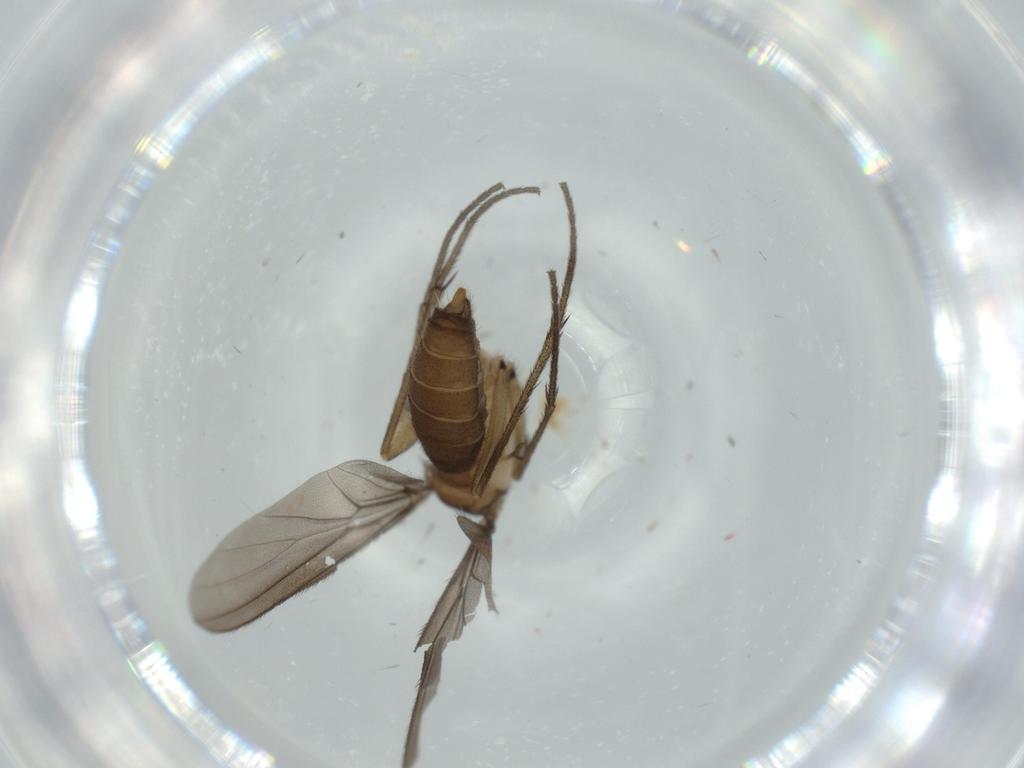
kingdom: Animalia
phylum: Arthropoda
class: Insecta
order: Diptera
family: Diadocidiidae
